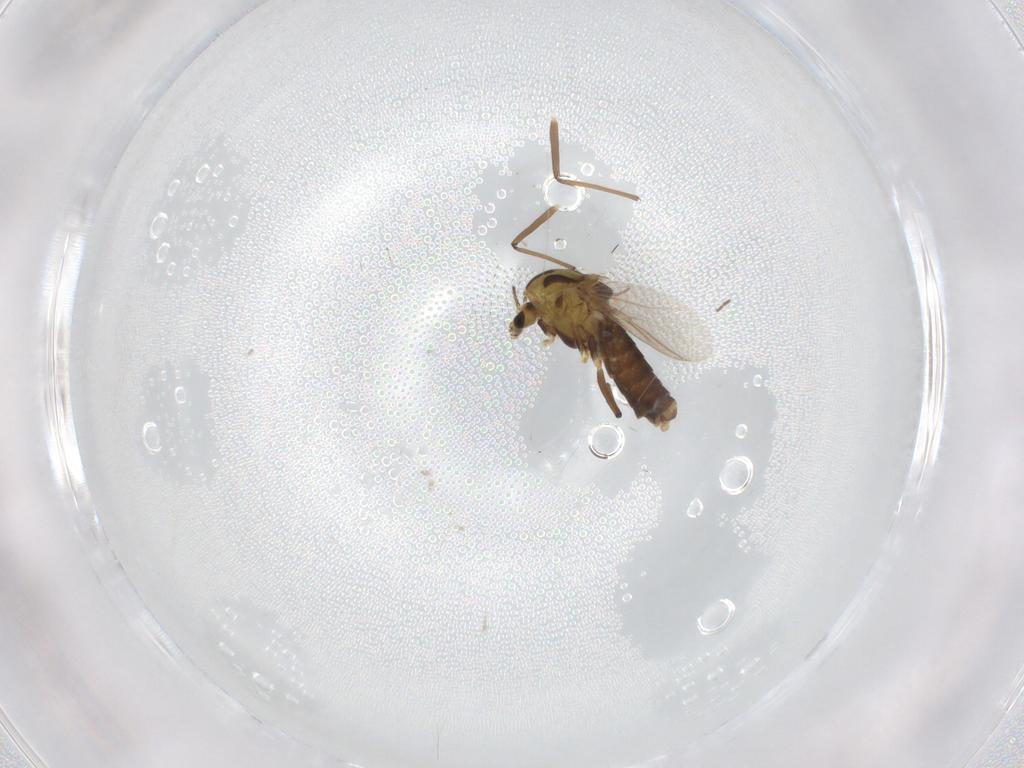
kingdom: Animalia
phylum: Arthropoda
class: Insecta
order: Diptera
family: Chironomidae
